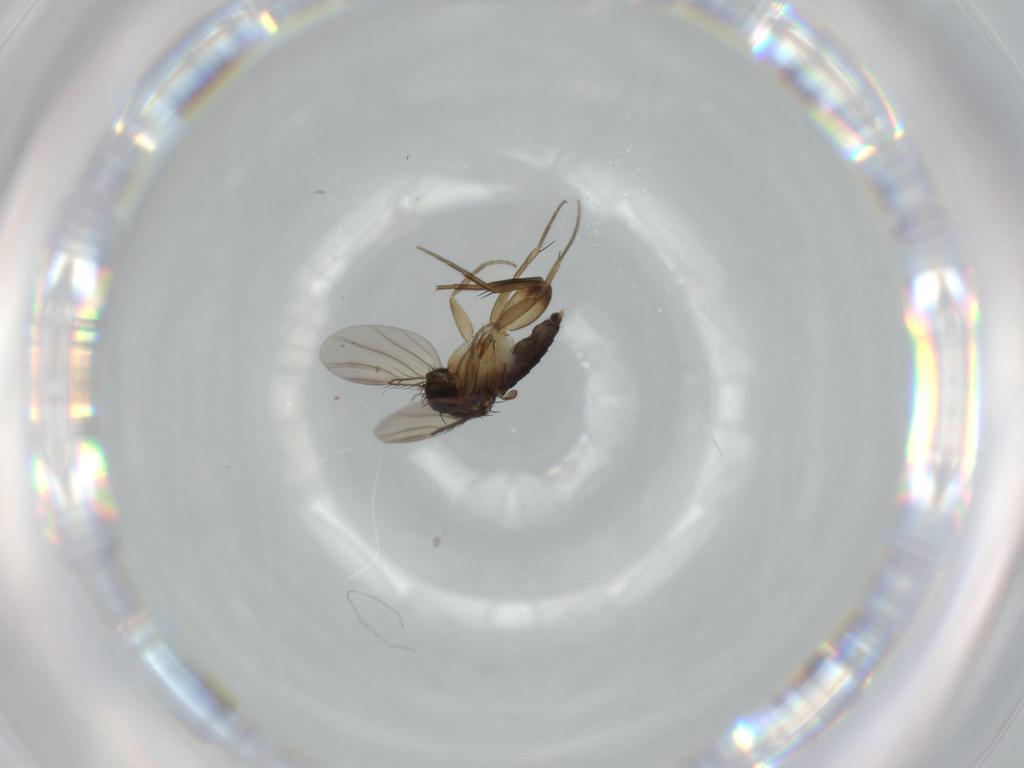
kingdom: Animalia
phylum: Arthropoda
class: Insecta
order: Diptera
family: Phoridae
